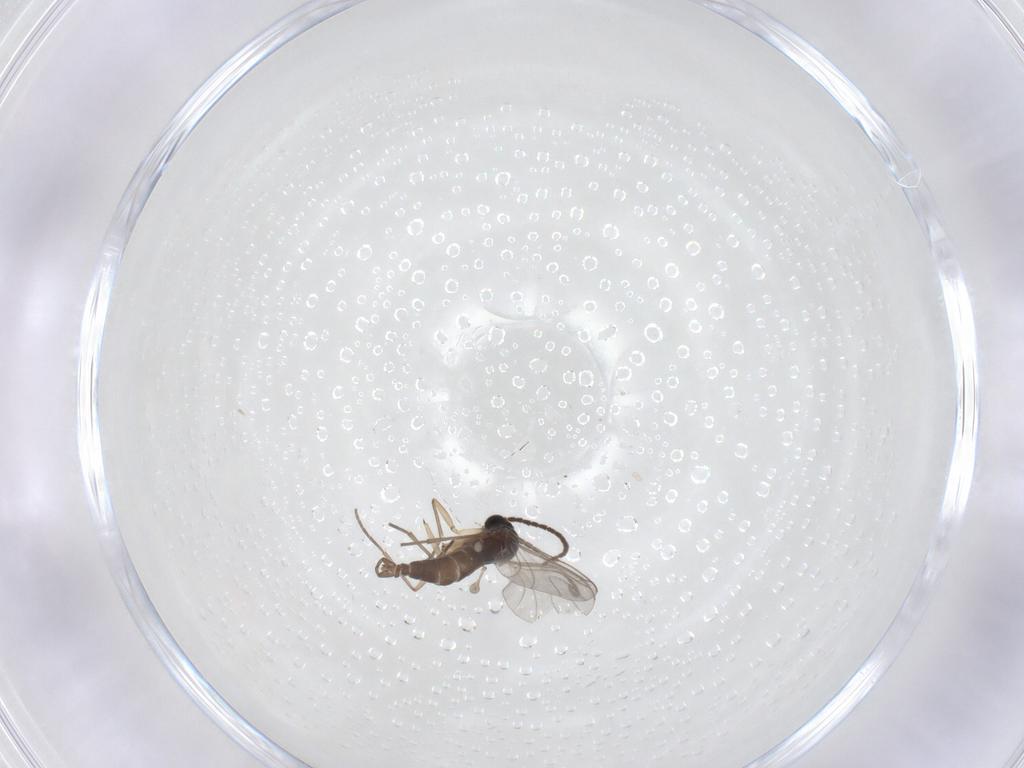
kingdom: Animalia
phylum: Arthropoda
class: Insecta
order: Diptera
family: Sciaridae
